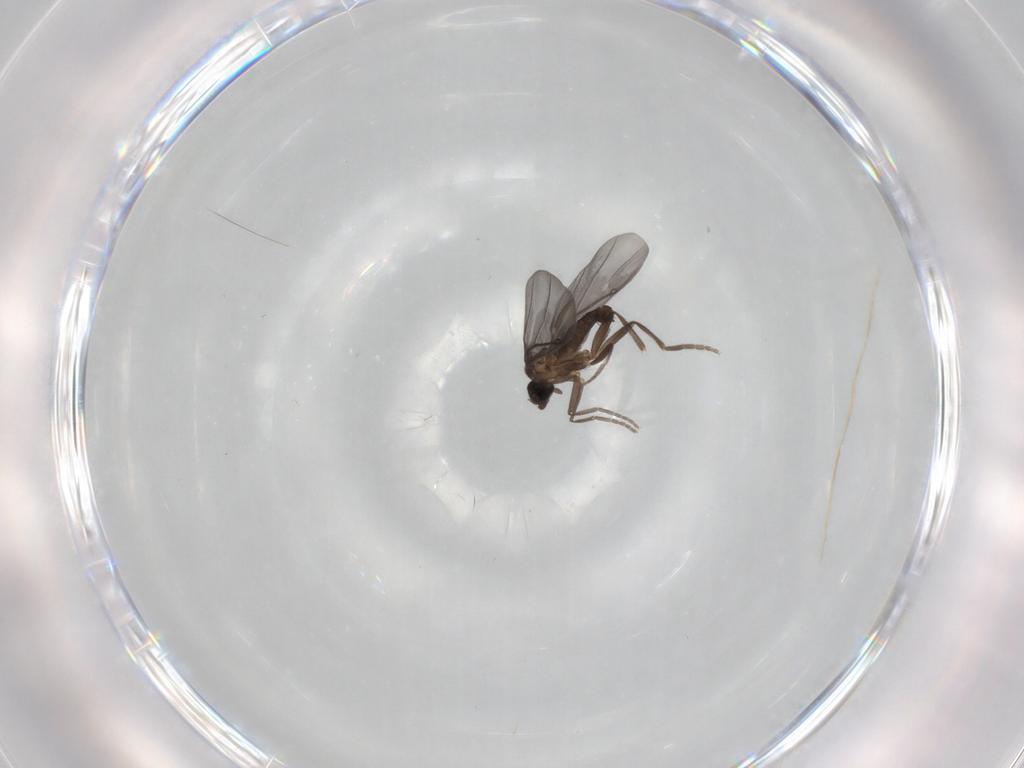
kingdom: Animalia
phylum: Arthropoda
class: Insecta
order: Diptera
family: Phoridae
